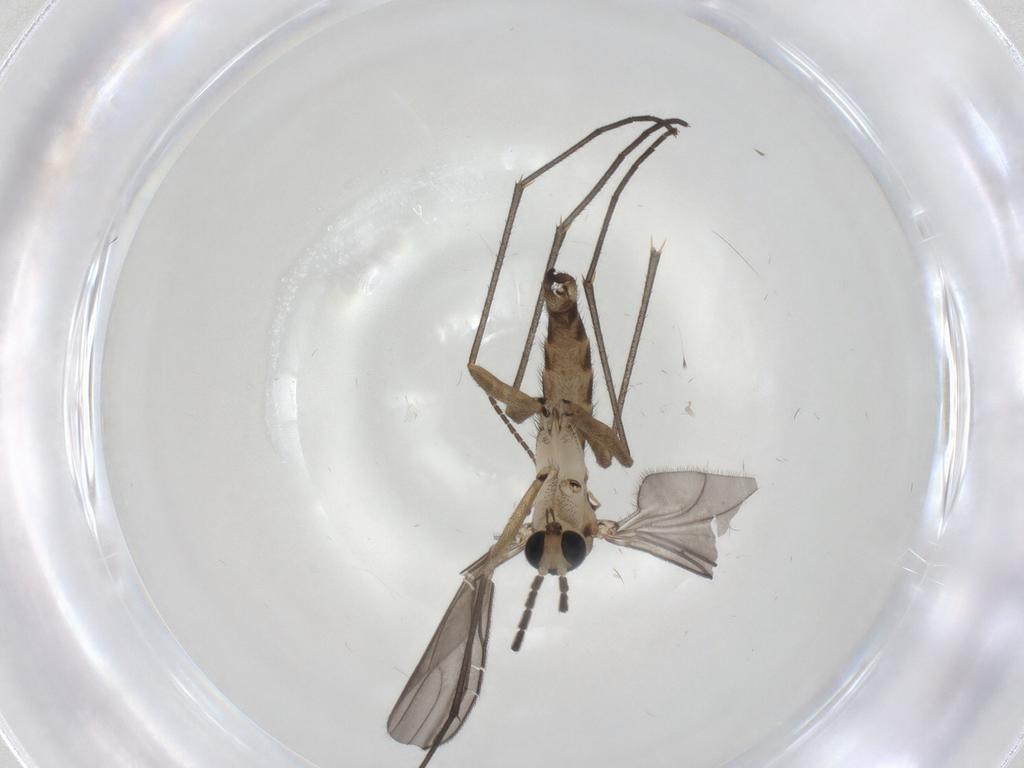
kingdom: Animalia
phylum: Arthropoda
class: Insecta
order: Diptera
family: Sciaridae
